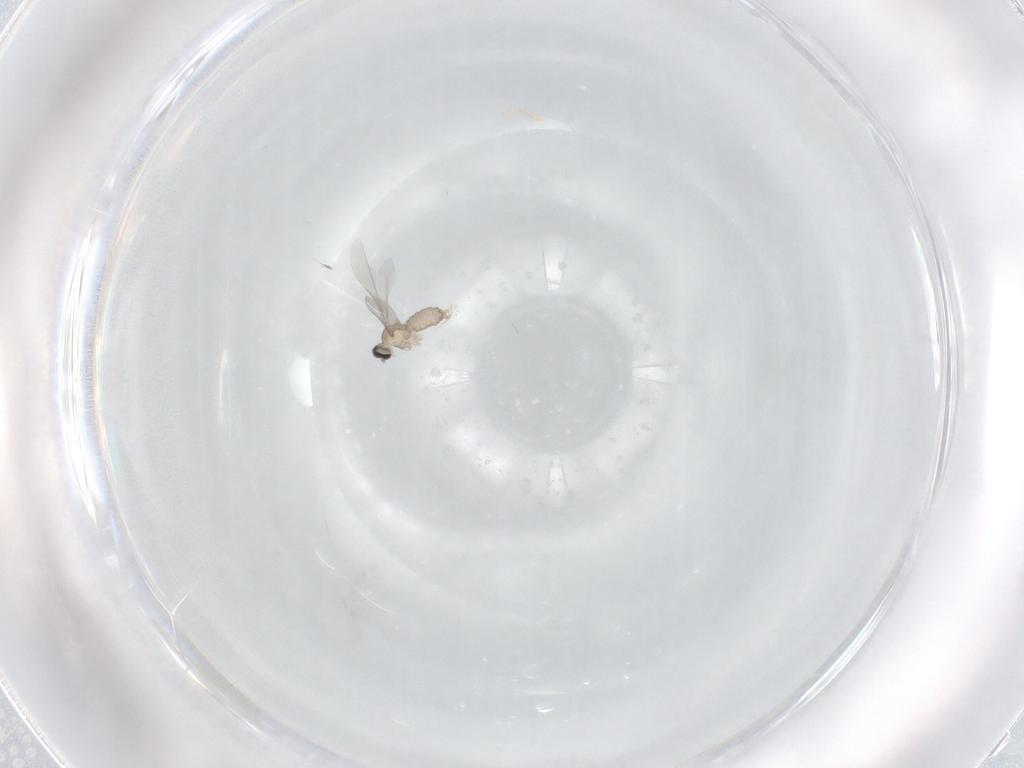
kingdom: Animalia
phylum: Arthropoda
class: Insecta
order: Diptera
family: Cecidomyiidae
